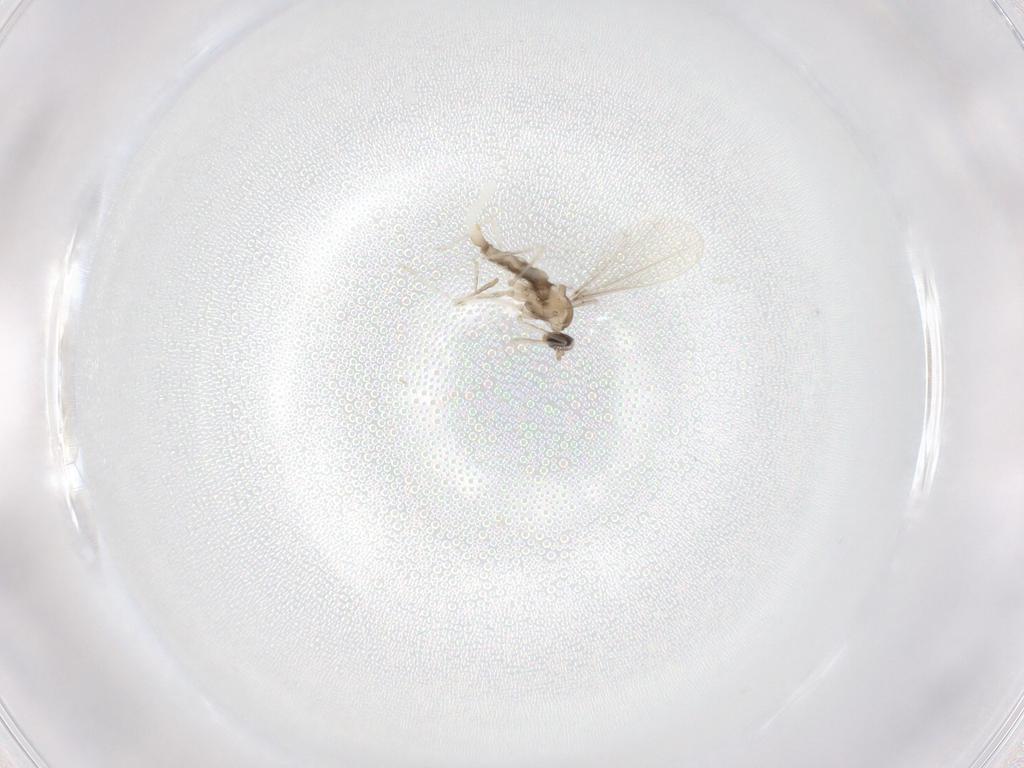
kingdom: Animalia
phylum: Arthropoda
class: Insecta
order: Diptera
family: Cecidomyiidae
